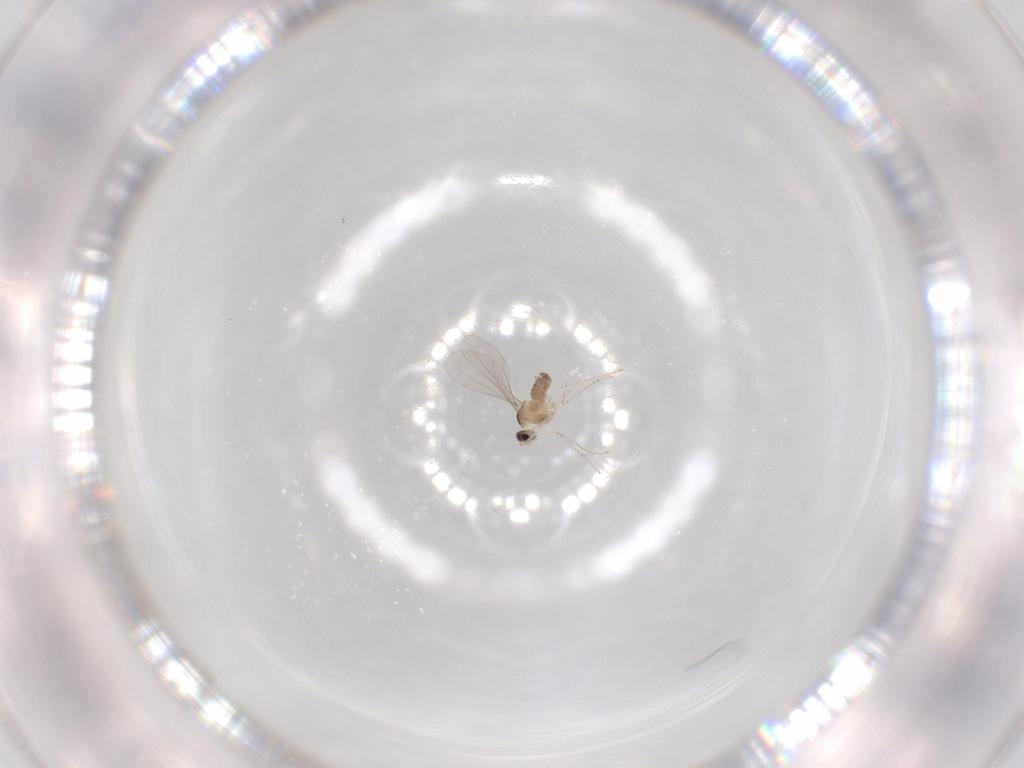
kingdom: Animalia
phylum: Arthropoda
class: Insecta
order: Diptera
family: Cecidomyiidae
